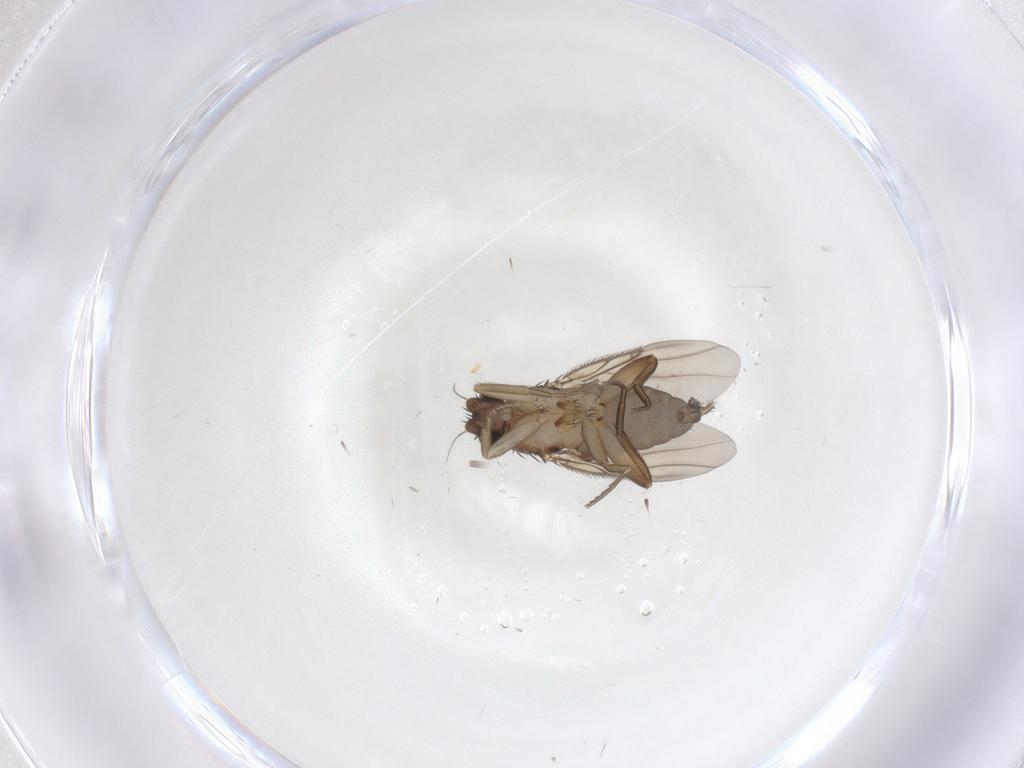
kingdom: Animalia
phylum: Arthropoda
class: Insecta
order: Diptera
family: Phoridae
